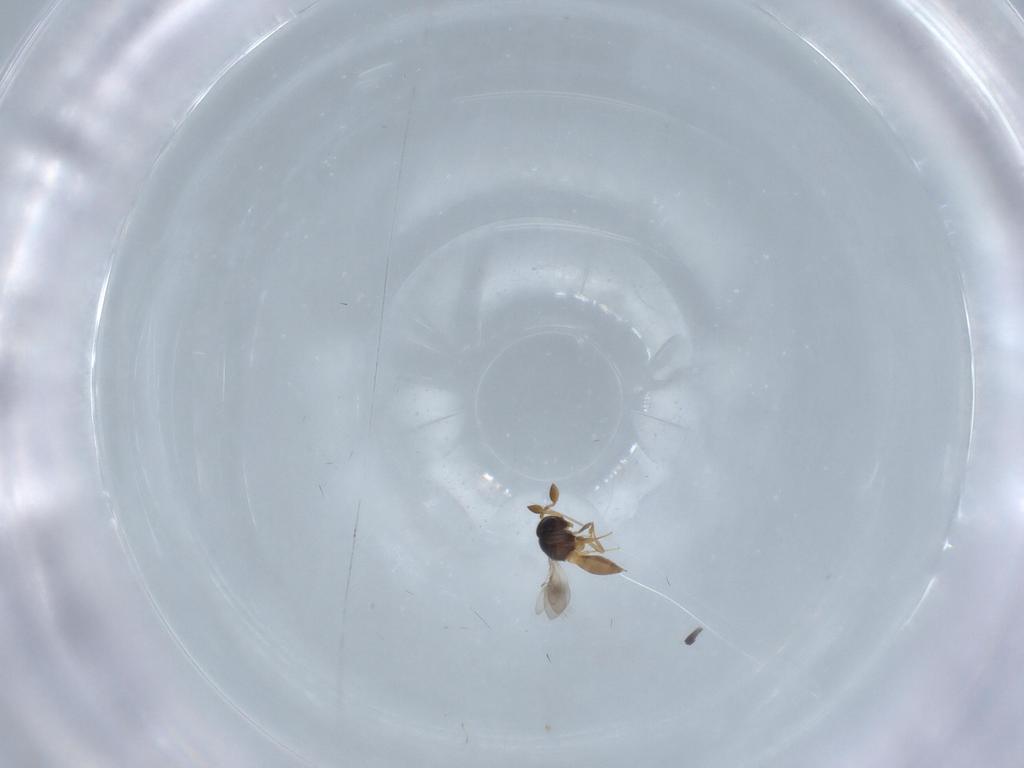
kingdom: Animalia
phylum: Arthropoda
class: Insecta
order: Hymenoptera
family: Scelionidae
